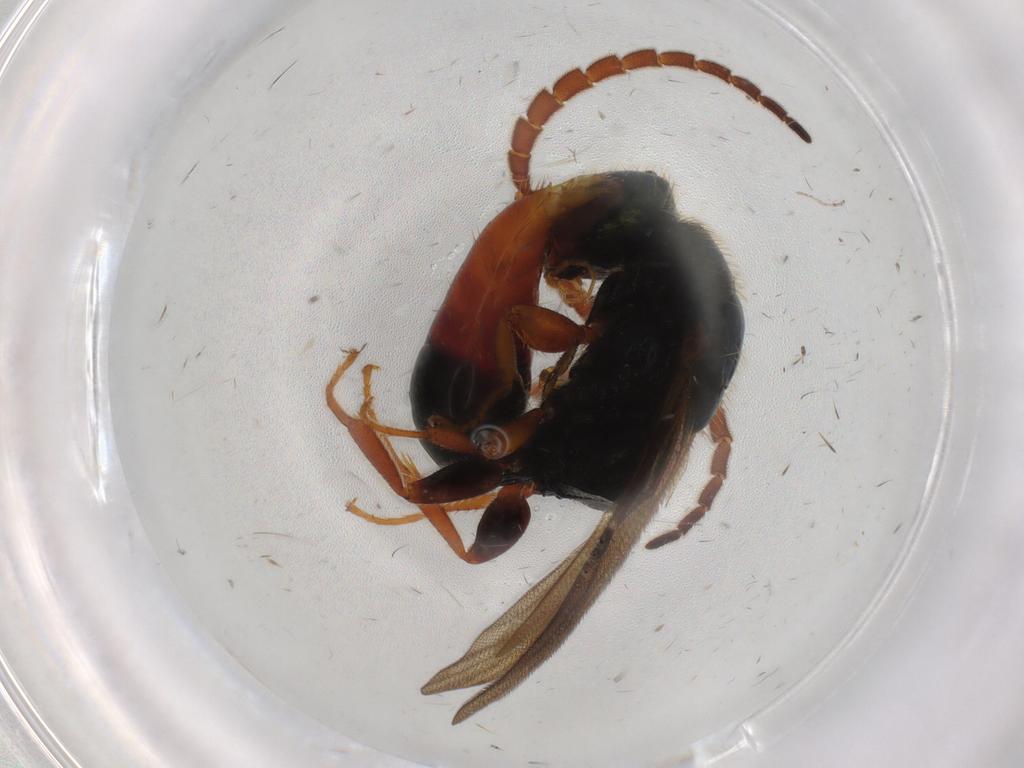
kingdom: Animalia
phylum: Arthropoda
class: Insecta
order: Hymenoptera
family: Bethylidae
